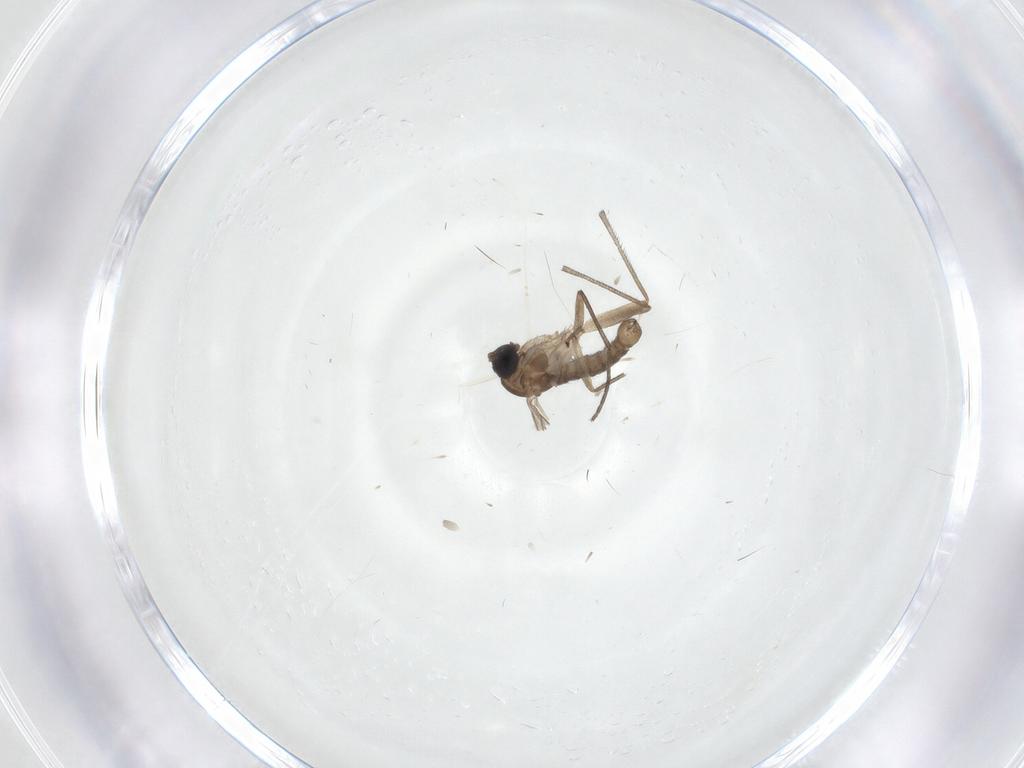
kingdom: Animalia
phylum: Arthropoda
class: Insecta
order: Diptera
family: Sciaridae
